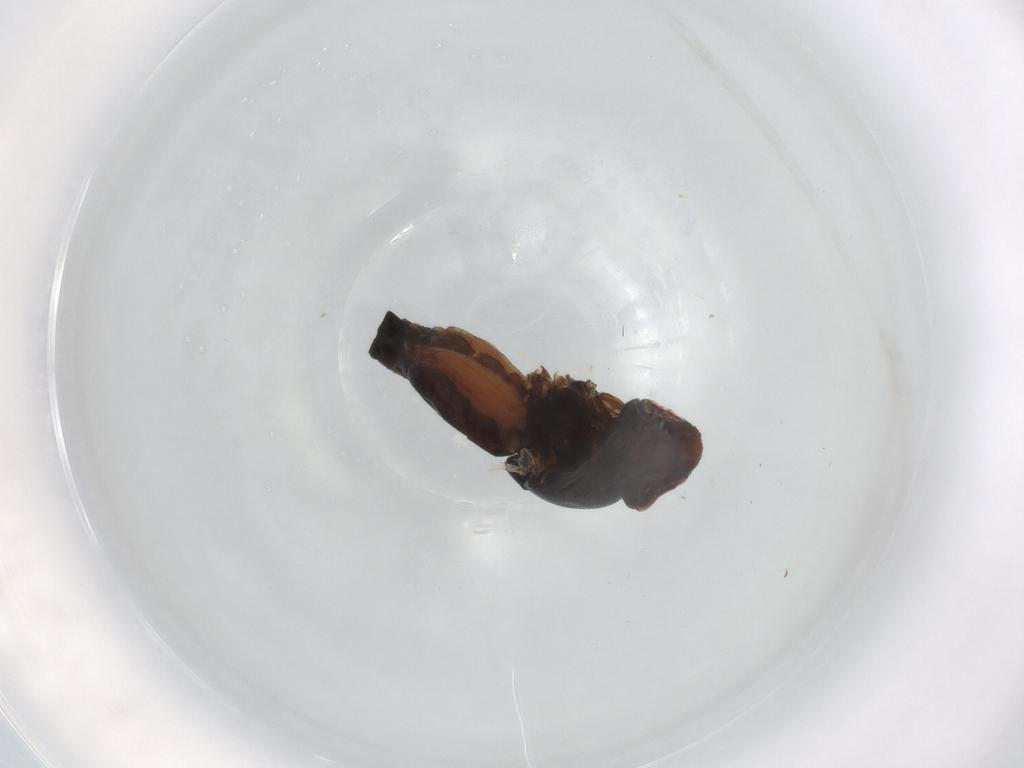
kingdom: Animalia
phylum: Arthropoda
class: Insecta
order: Diptera
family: Chloropidae
